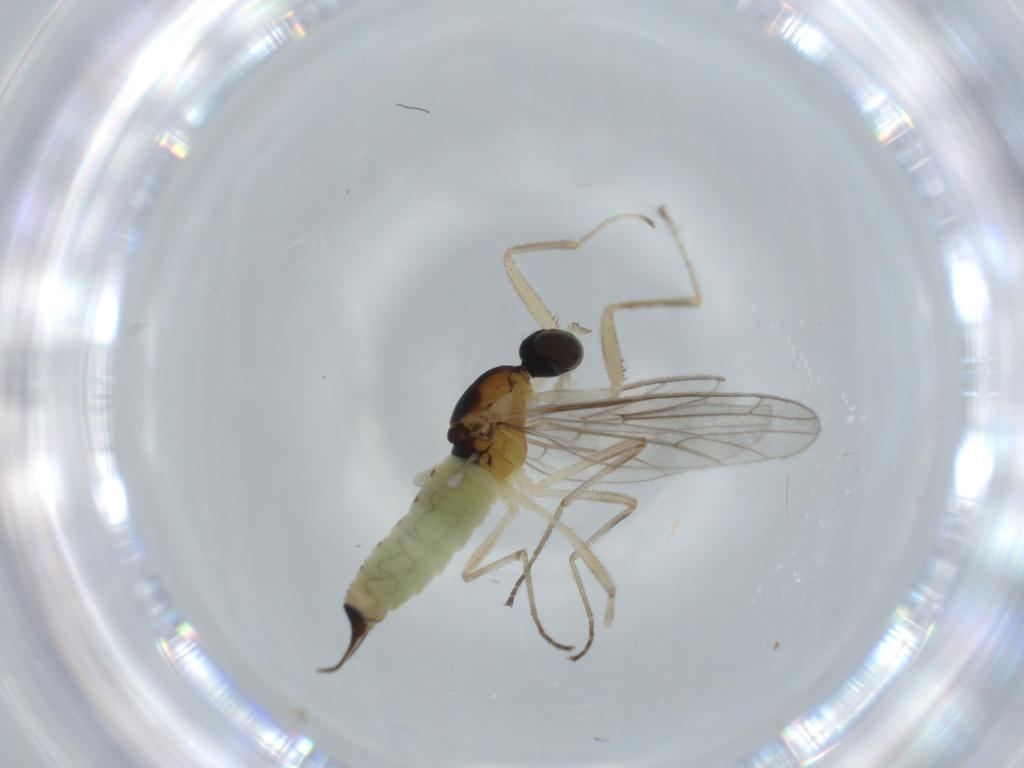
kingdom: Animalia
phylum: Arthropoda
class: Insecta
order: Diptera
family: Empididae
